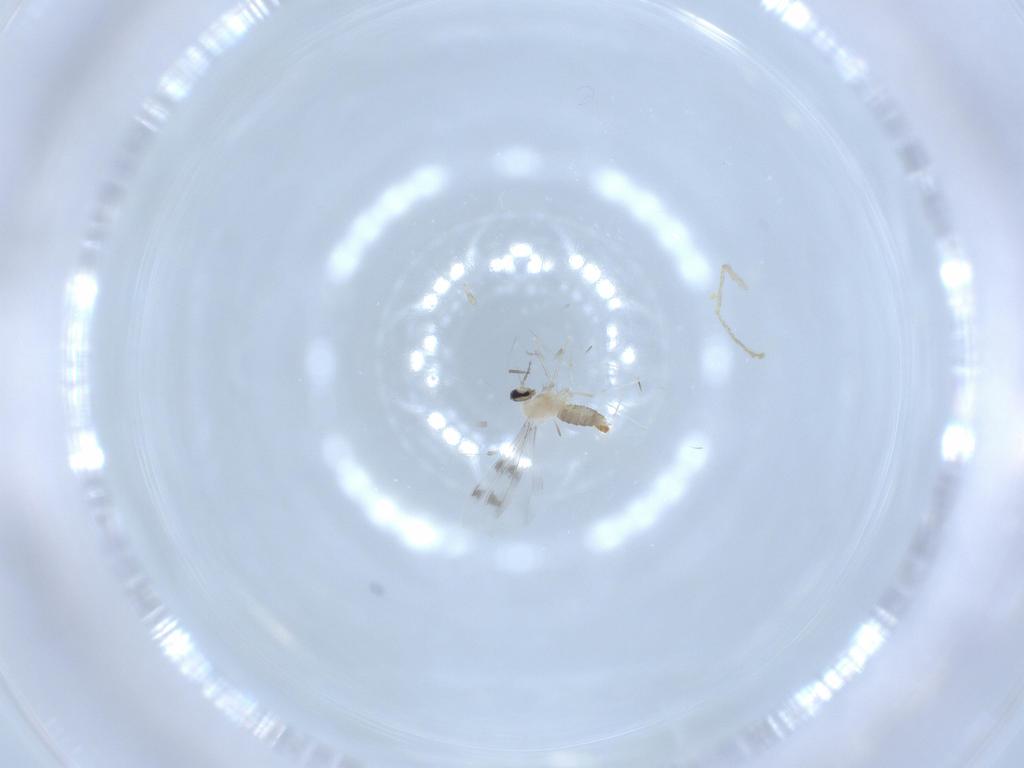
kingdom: Animalia
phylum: Arthropoda
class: Insecta
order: Diptera
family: Cecidomyiidae
